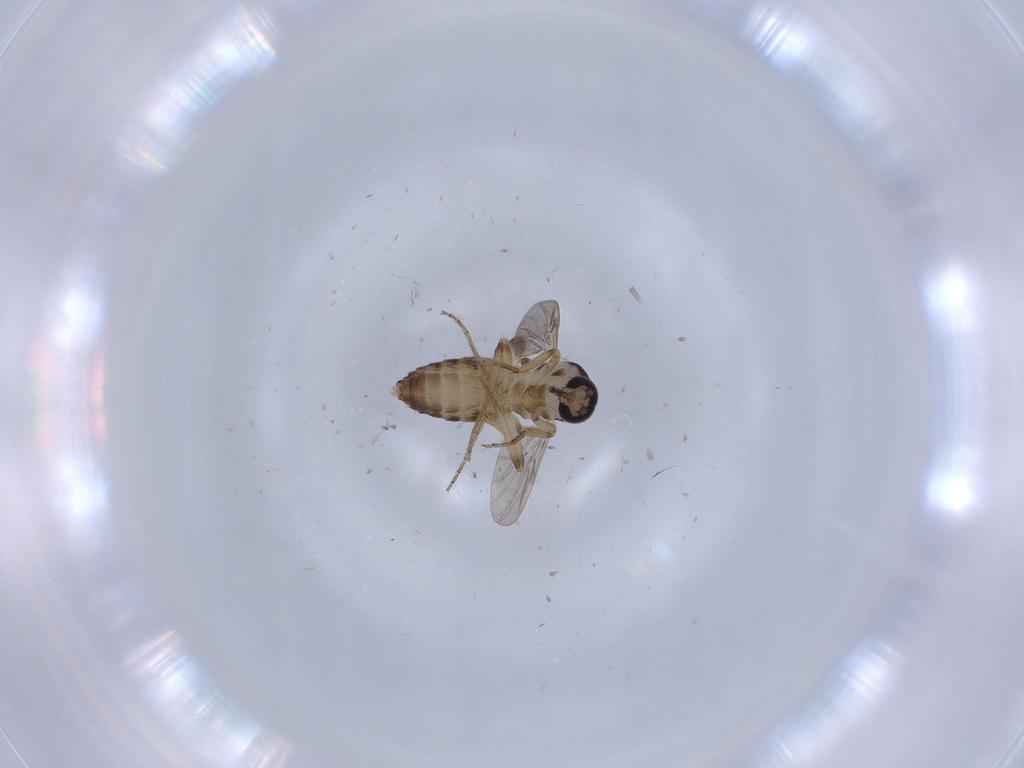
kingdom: Animalia
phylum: Arthropoda
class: Insecta
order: Diptera
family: Ceratopogonidae
